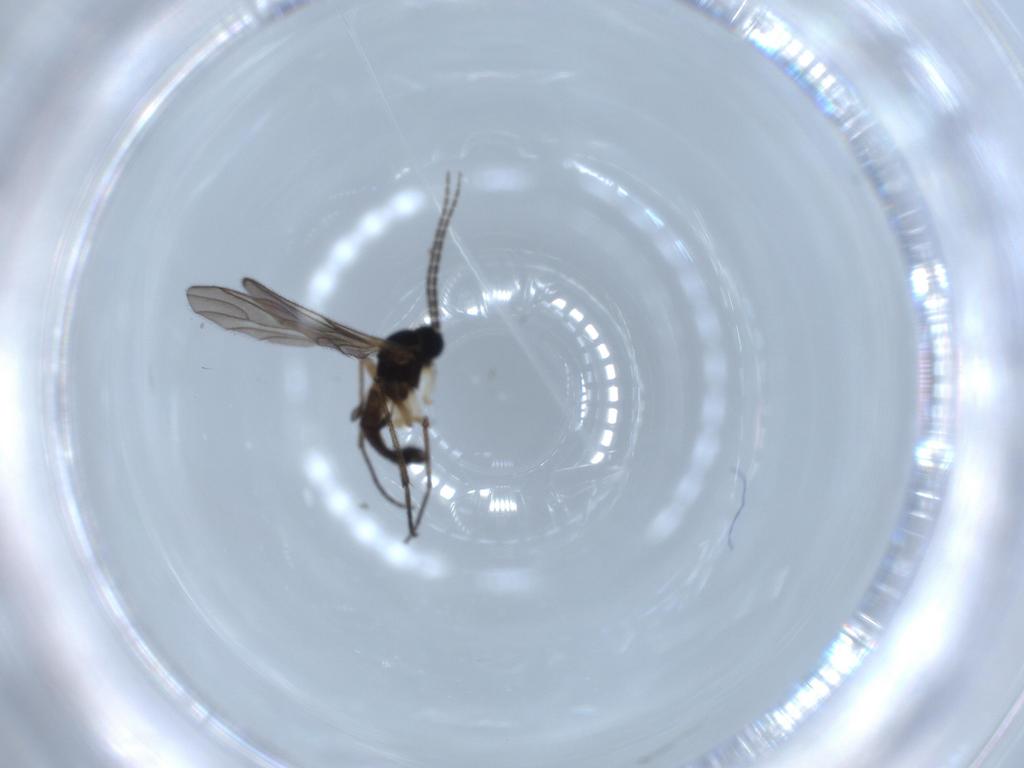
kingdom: Animalia
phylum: Arthropoda
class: Insecta
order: Diptera
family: Sciaridae
